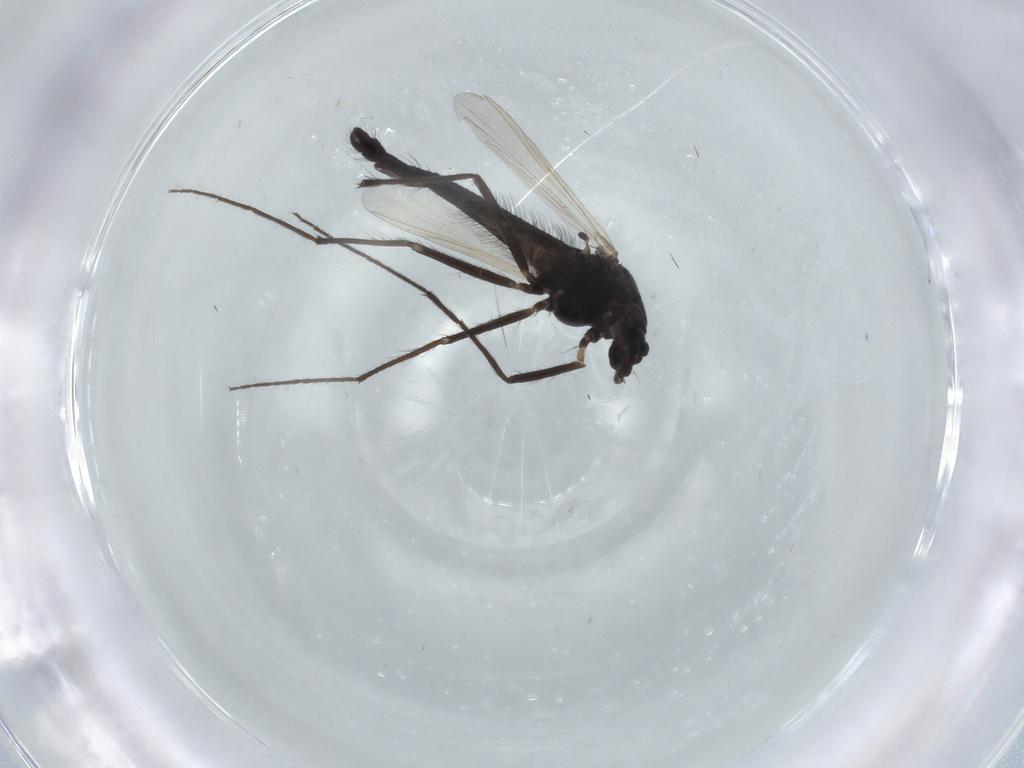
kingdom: Animalia
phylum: Arthropoda
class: Insecta
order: Diptera
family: Chironomidae
